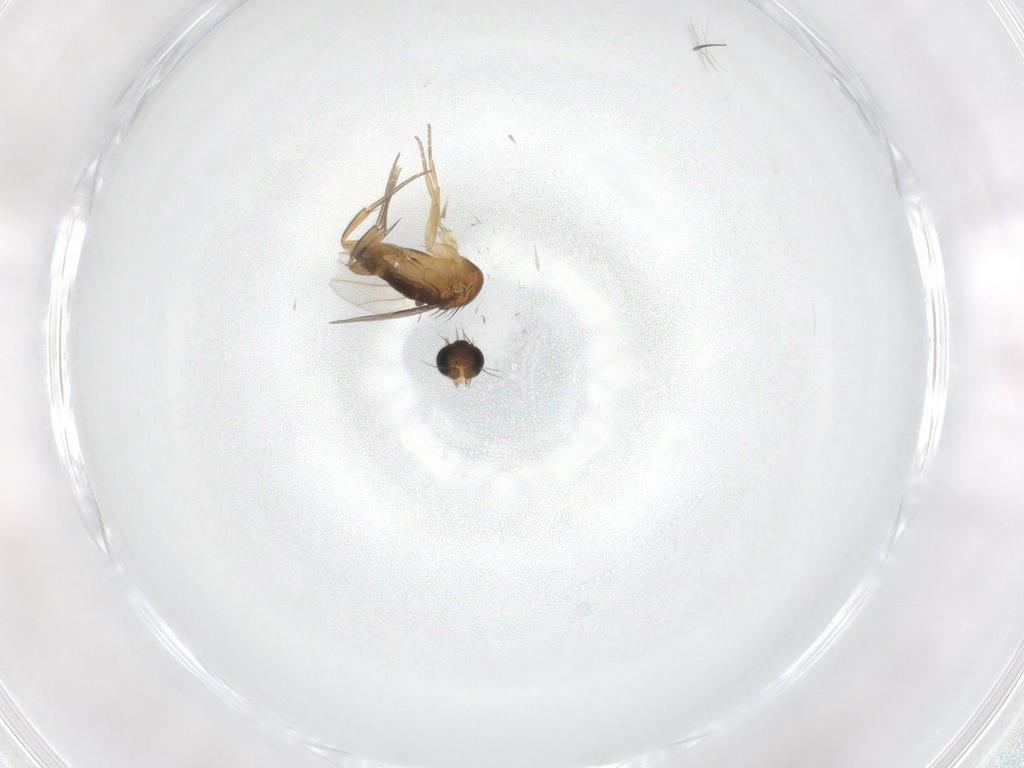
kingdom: Animalia
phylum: Arthropoda
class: Insecta
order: Diptera
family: Phoridae
